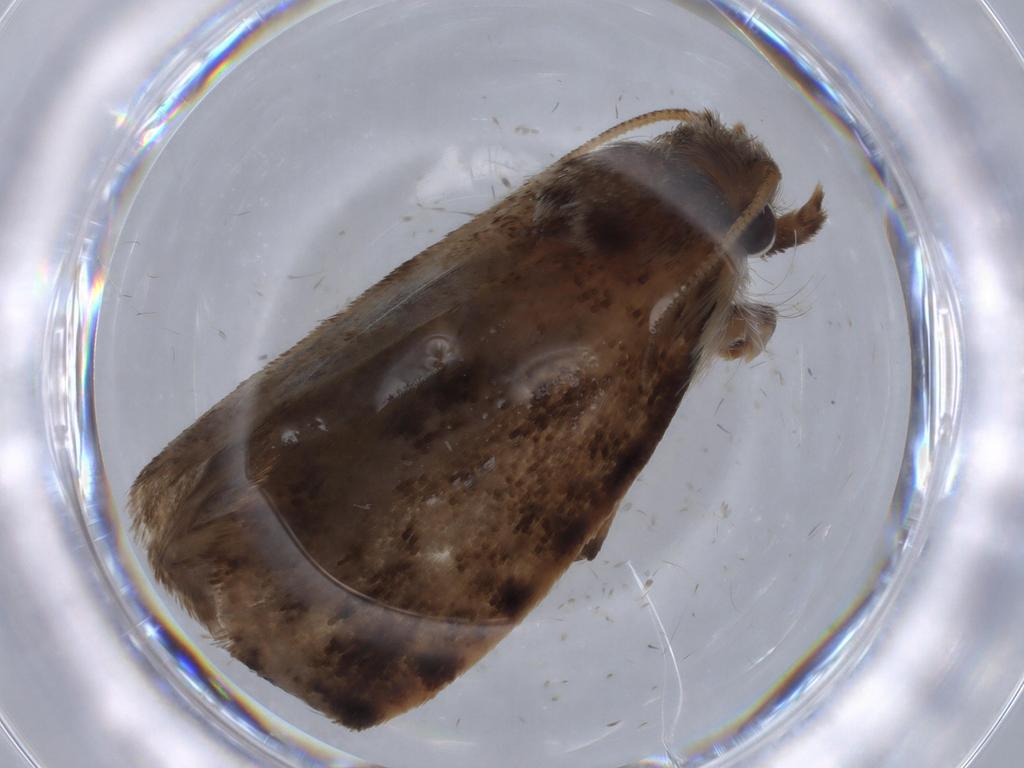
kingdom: Animalia
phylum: Arthropoda
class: Insecta
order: Lepidoptera
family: Tineidae
